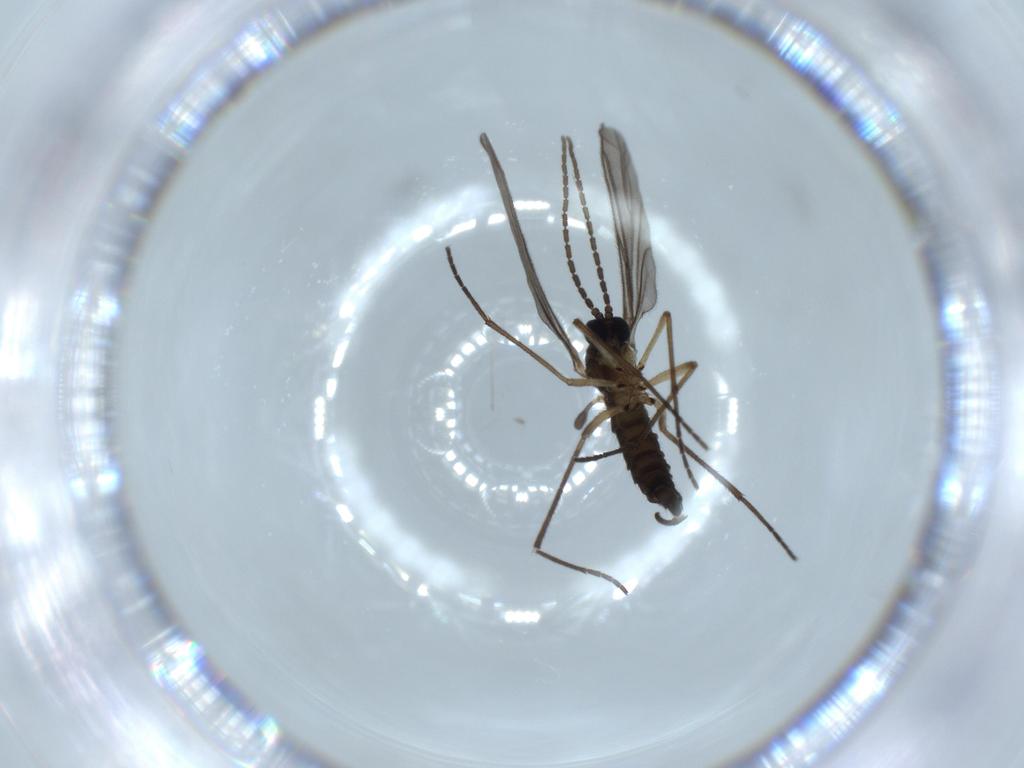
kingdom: Animalia
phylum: Arthropoda
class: Insecta
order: Diptera
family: Sciaridae
